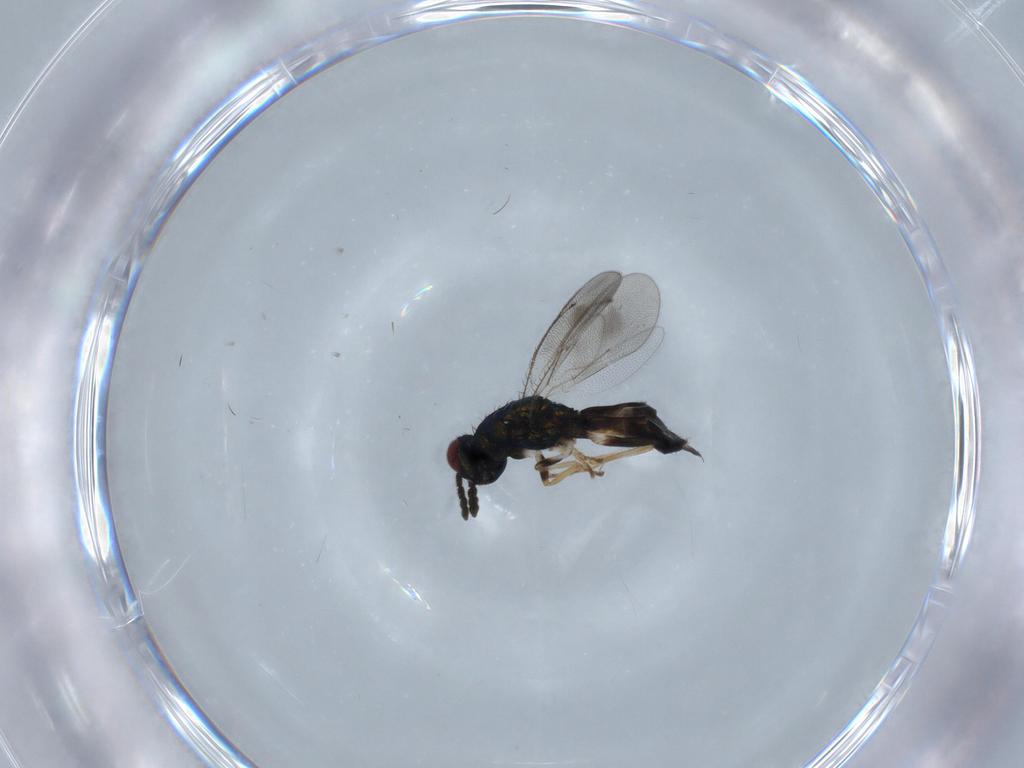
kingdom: Animalia
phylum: Arthropoda
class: Insecta
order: Hymenoptera
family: Eulophidae
